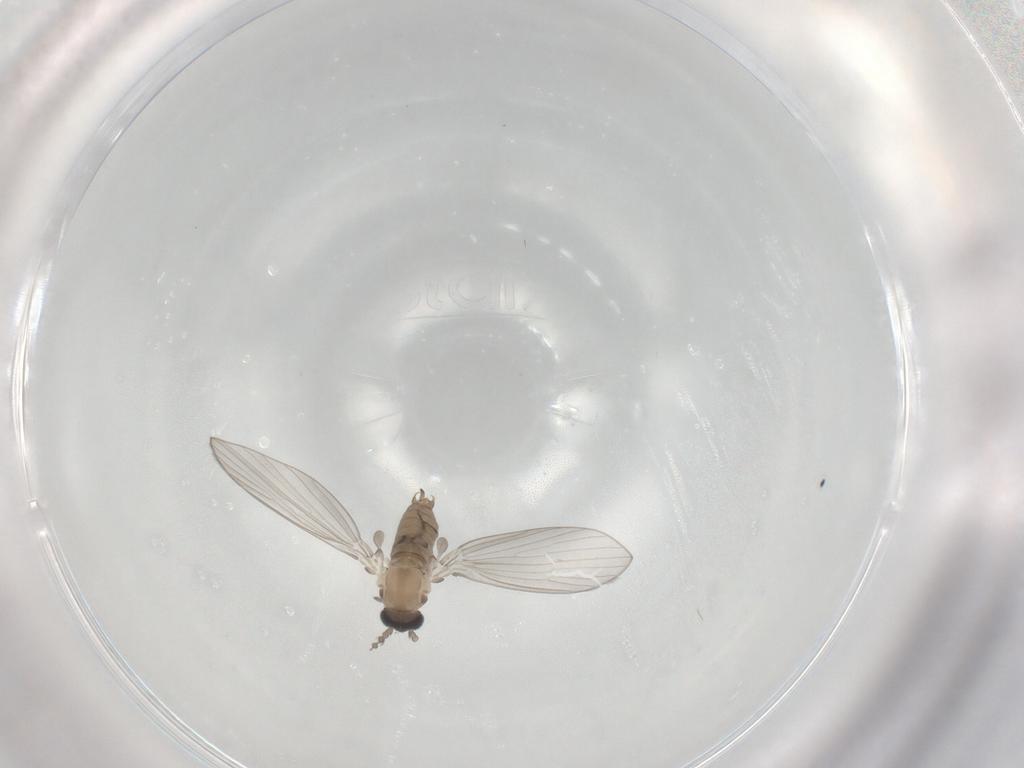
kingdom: Animalia
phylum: Arthropoda
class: Insecta
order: Diptera
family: Psychodidae
